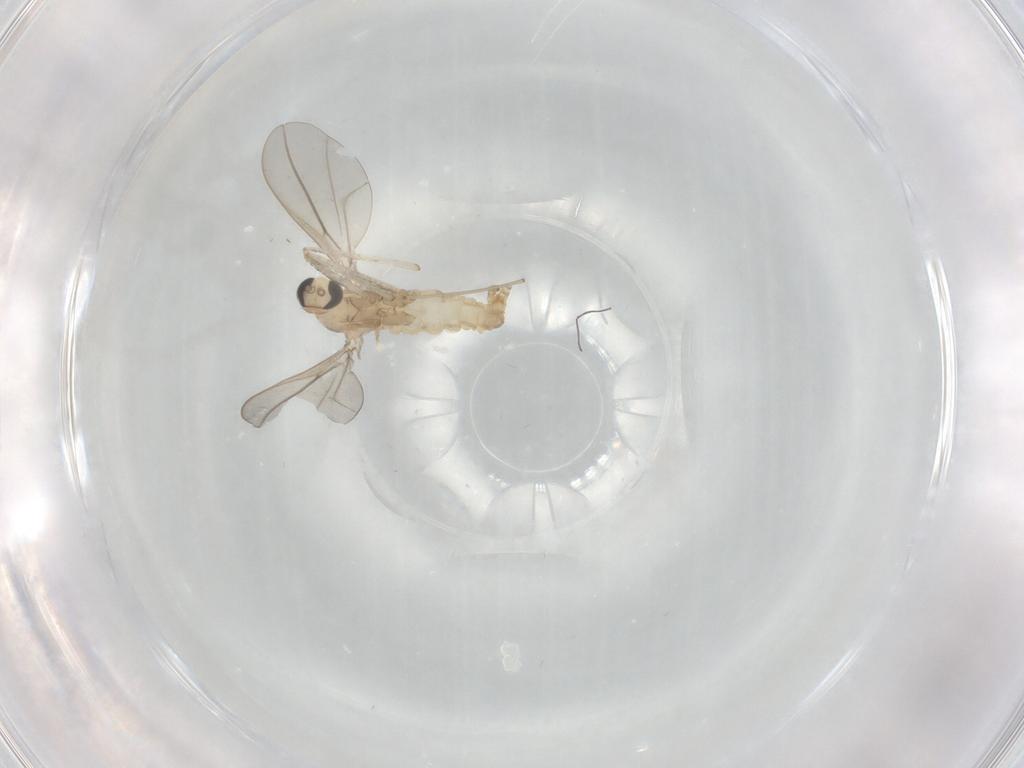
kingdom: Animalia
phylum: Arthropoda
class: Insecta
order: Diptera
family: Cecidomyiidae
